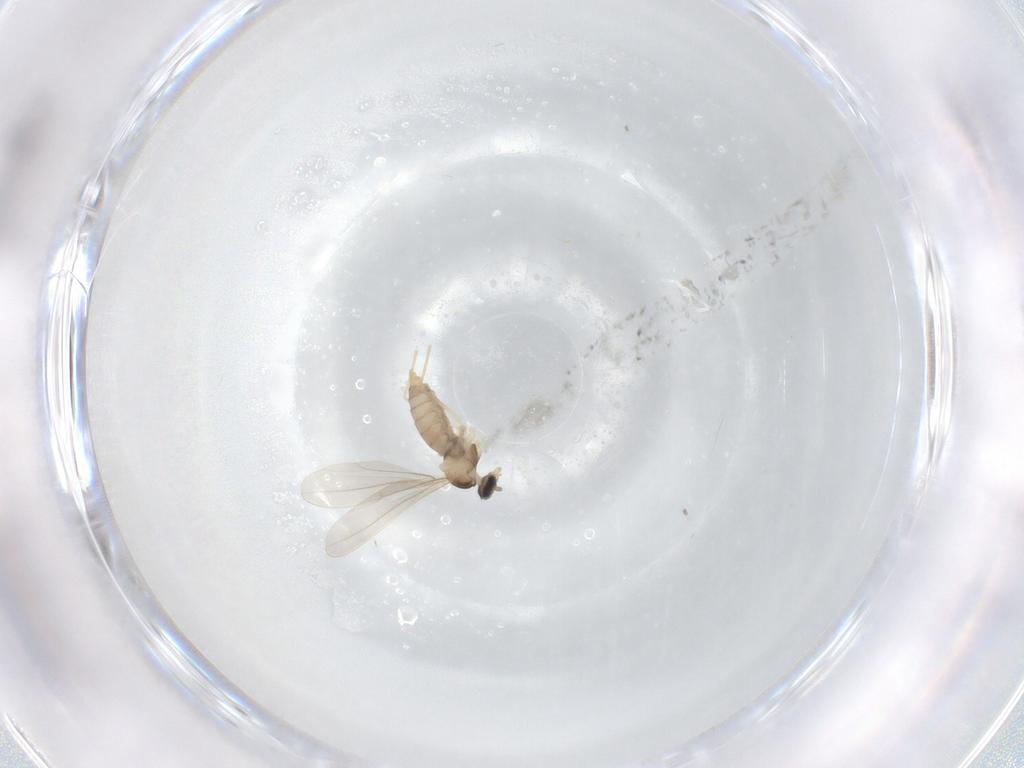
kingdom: Animalia
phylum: Arthropoda
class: Insecta
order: Diptera
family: Cecidomyiidae
